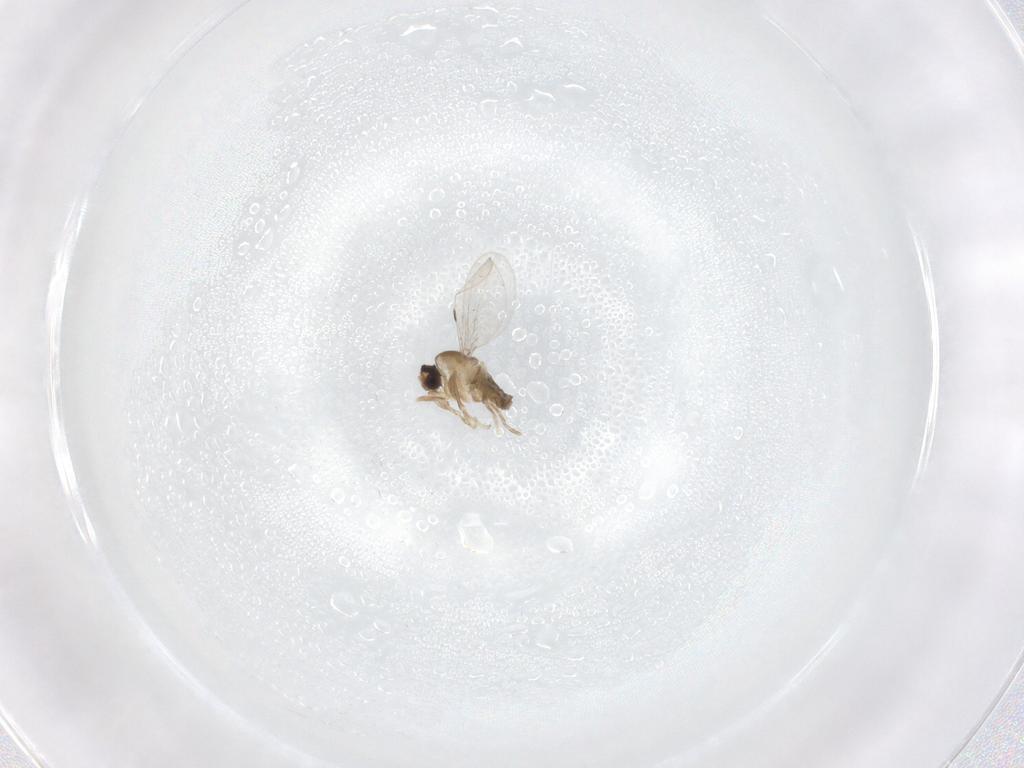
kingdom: Animalia
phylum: Arthropoda
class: Insecta
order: Diptera
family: Cecidomyiidae
